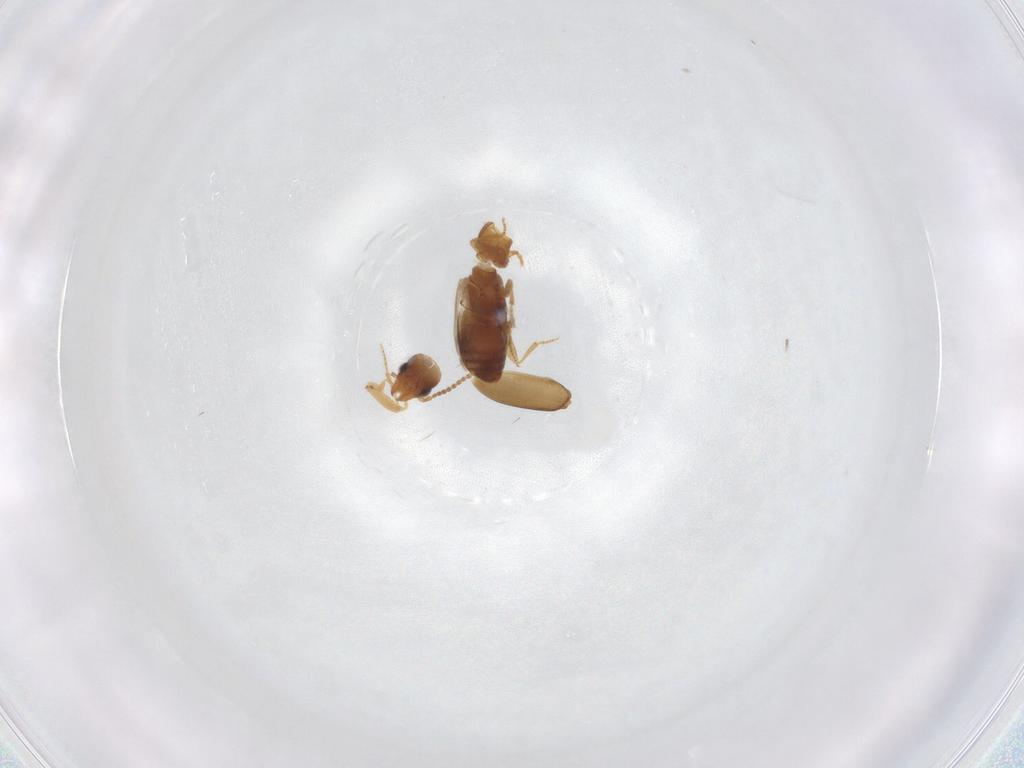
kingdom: Animalia
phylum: Arthropoda
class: Insecta
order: Coleoptera
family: Carabidae
